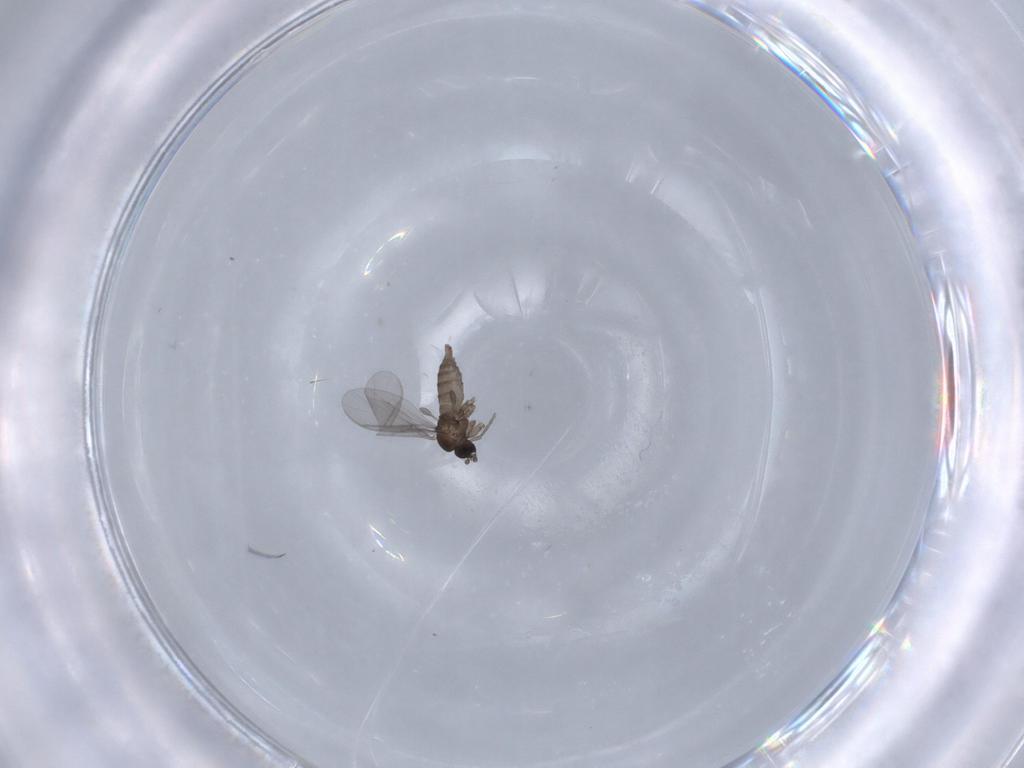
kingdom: Animalia
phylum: Arthropoda
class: Insecta
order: Diptera
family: Sciaridae
